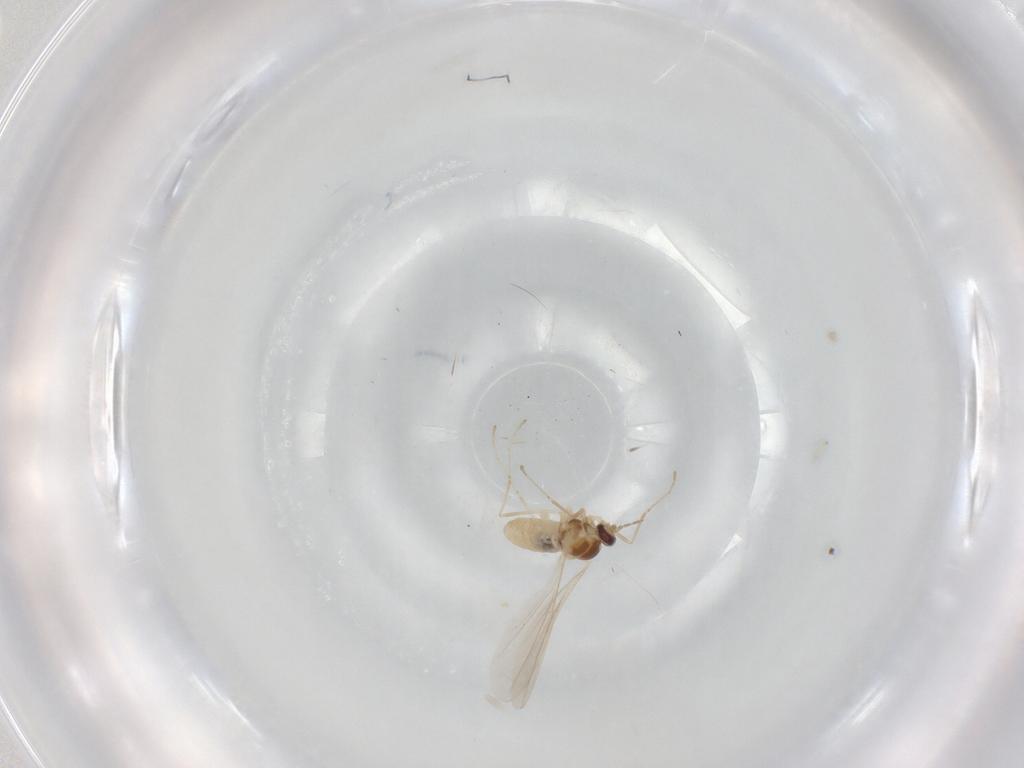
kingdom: Animalia
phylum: Arthropoda
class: Insecta
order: Diptera
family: Cecidomyiidae
